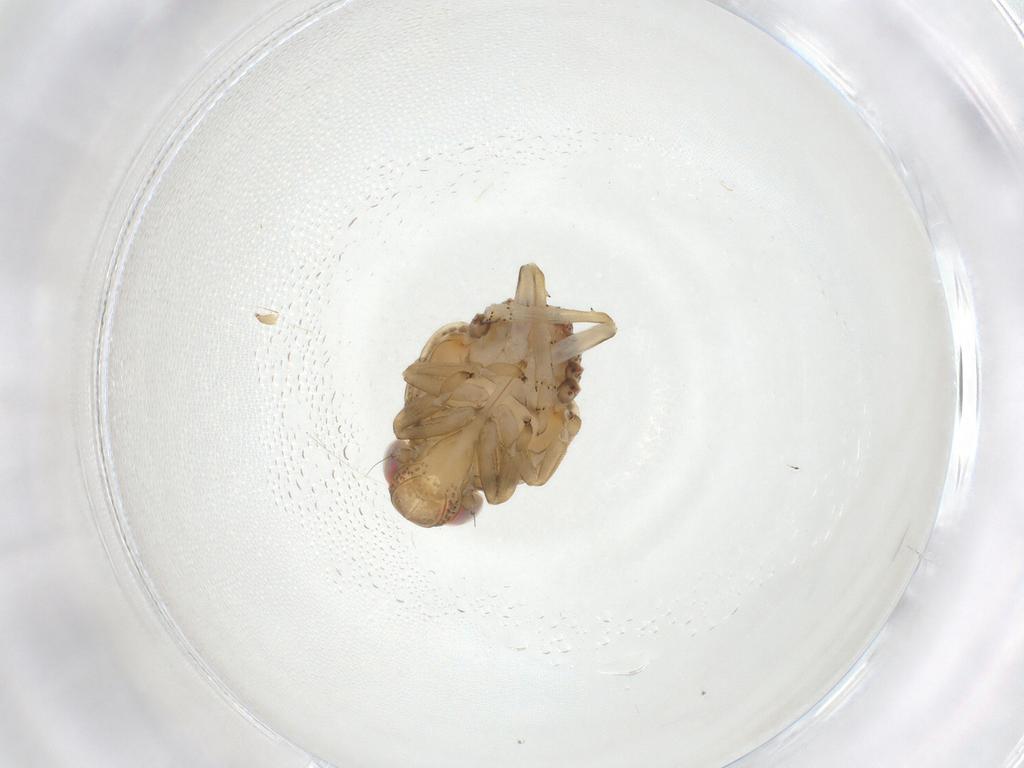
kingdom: Animalia
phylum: Arthropoda
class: Insecta
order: Hemiptera
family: Issidae
